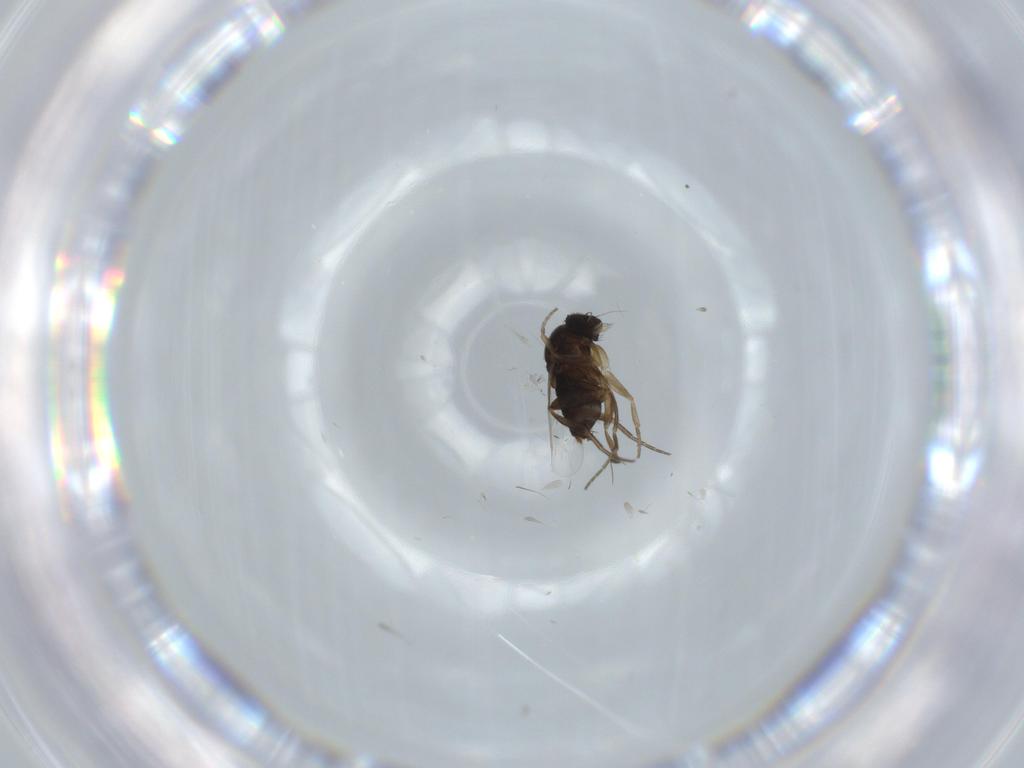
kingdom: Animalia
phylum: Arthropoda
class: Insecta
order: Diptera
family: Phoridae
